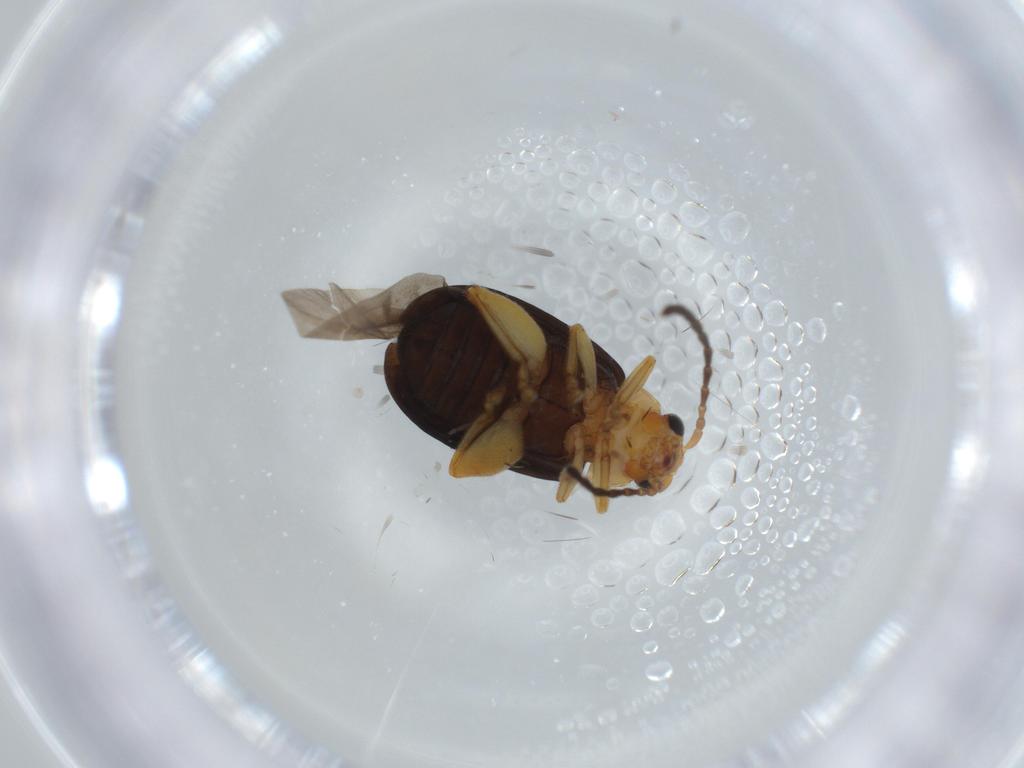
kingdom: Animalia
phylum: Arthropoda
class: Insecta
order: Coleoptera
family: Chrysomelidae
